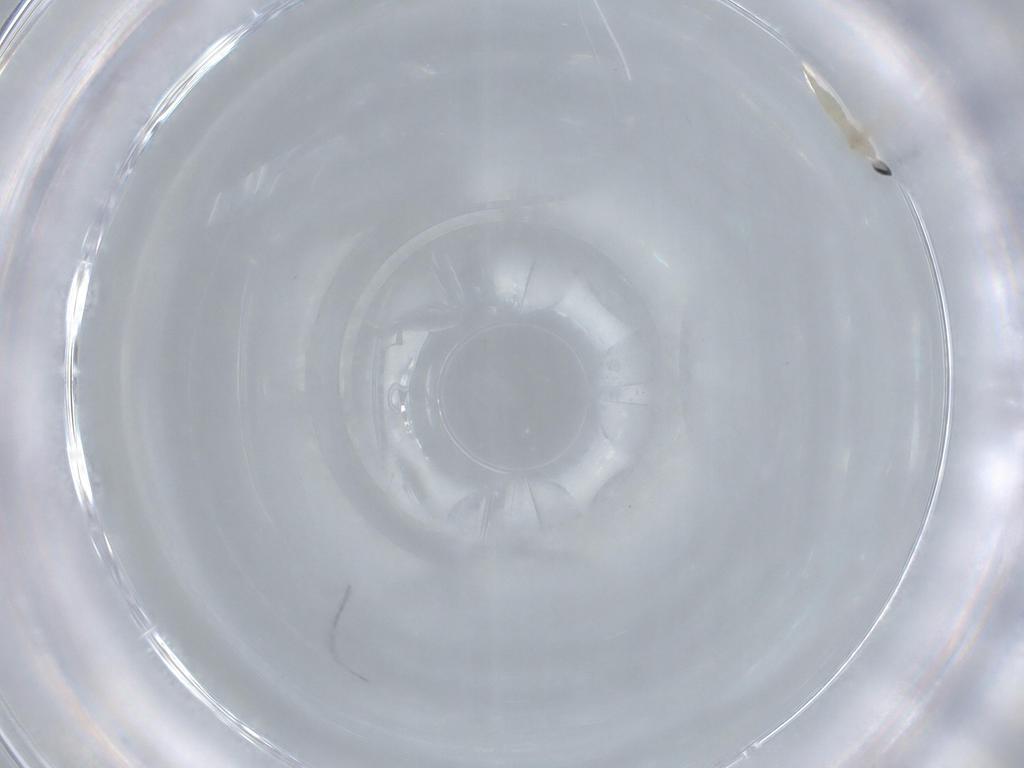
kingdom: Animalia
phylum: Arthropoda
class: Insecta
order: Diptera
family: Cecidomyiidae
